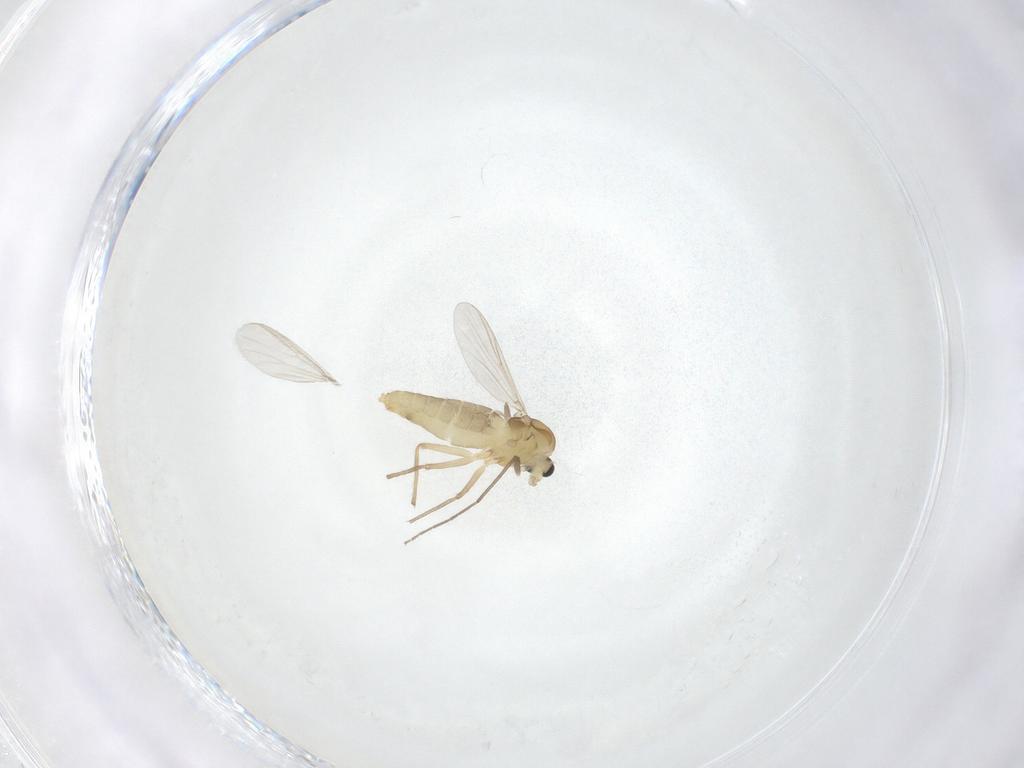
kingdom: Animalia
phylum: Arthropoda
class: Insecta
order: Diptera
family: Chironomidae
